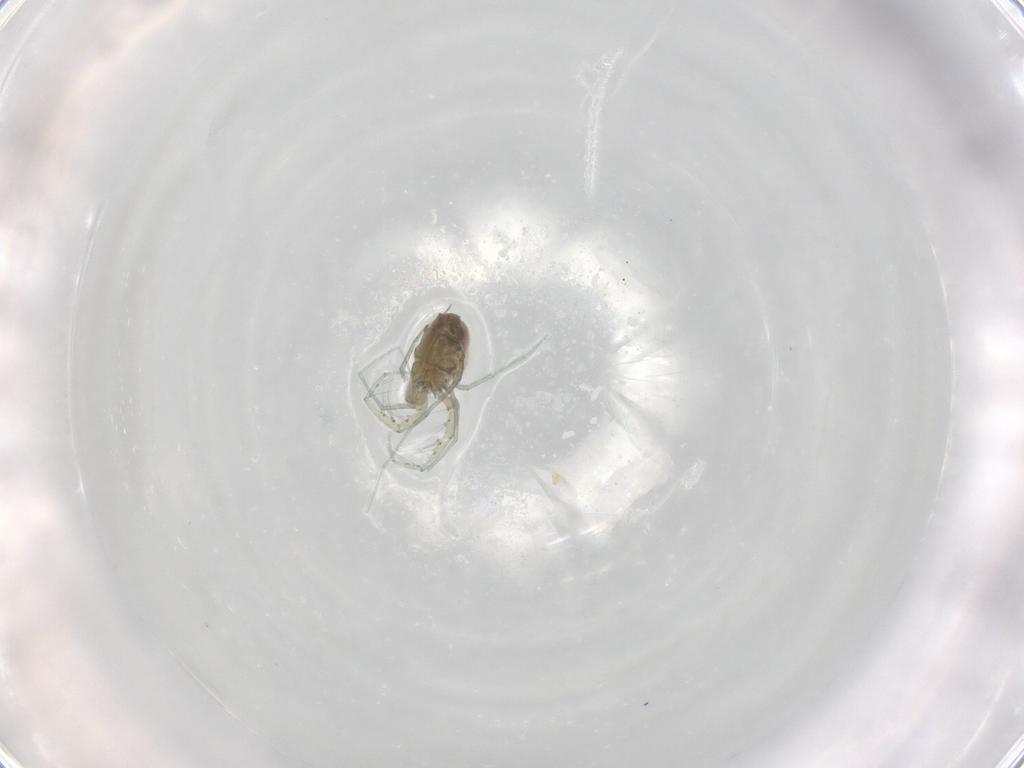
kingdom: Animalia
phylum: Arthropoda
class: Arachnida
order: Trombidiformes
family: Unionicolidae
